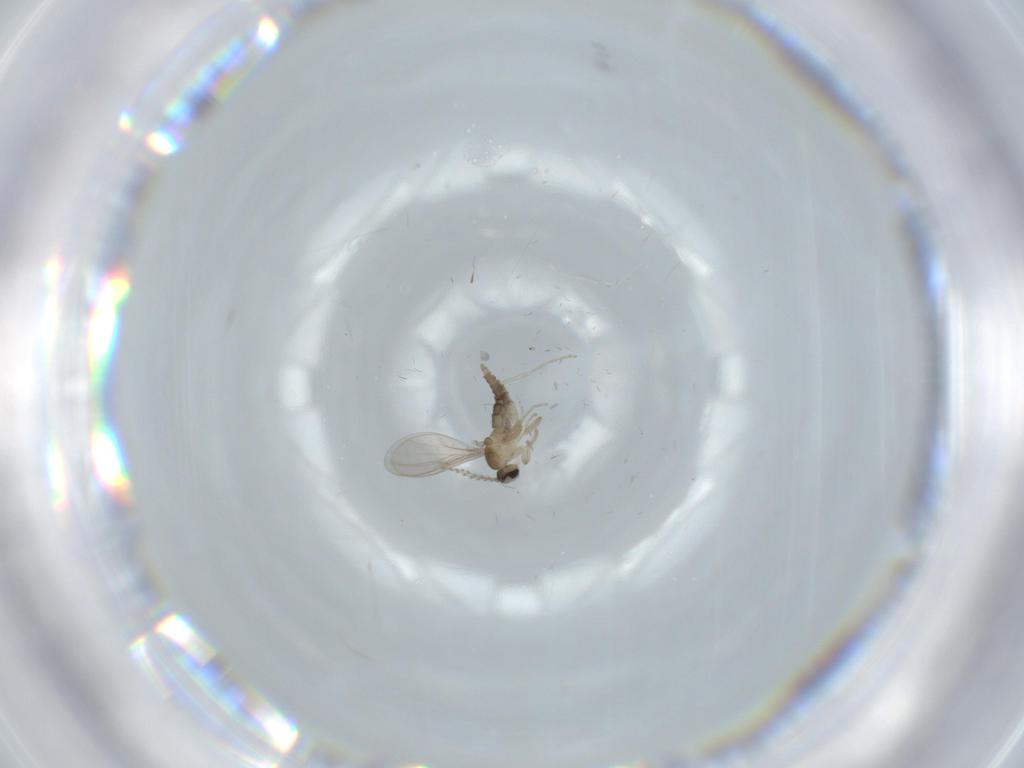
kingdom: Animalia
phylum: Arthropoda
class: Insecta
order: Diptera
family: Cecidomyiidae
